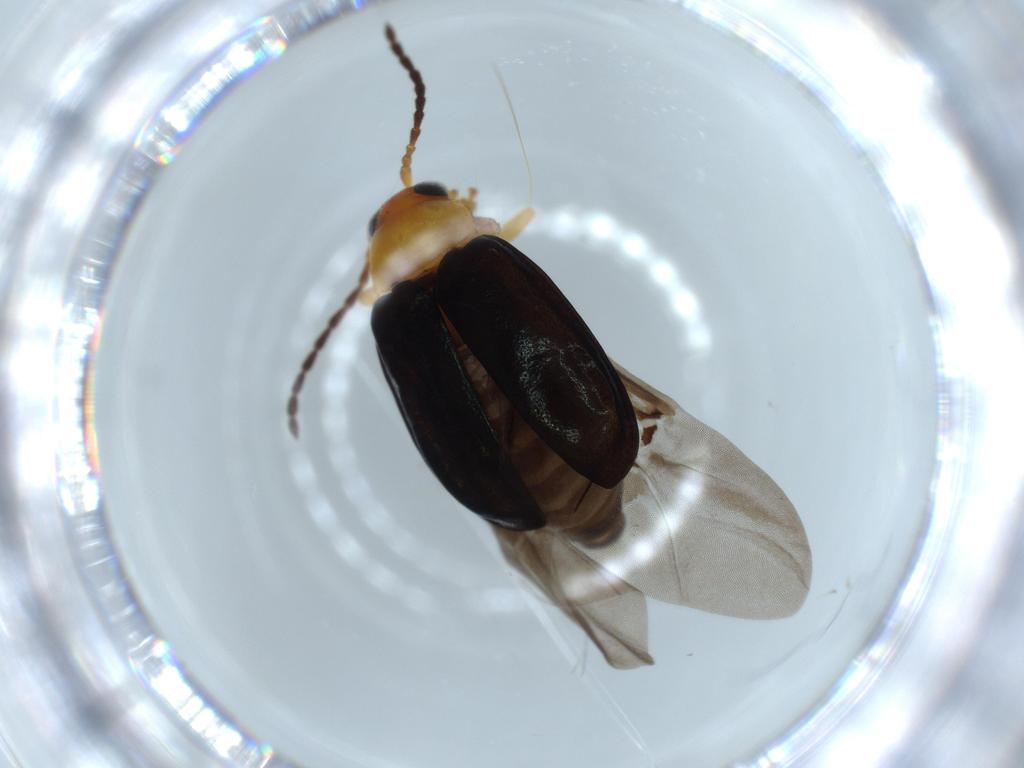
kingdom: Animalia
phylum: Arthropoda
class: Insecta
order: Coleoptera
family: Chrysomelidae
